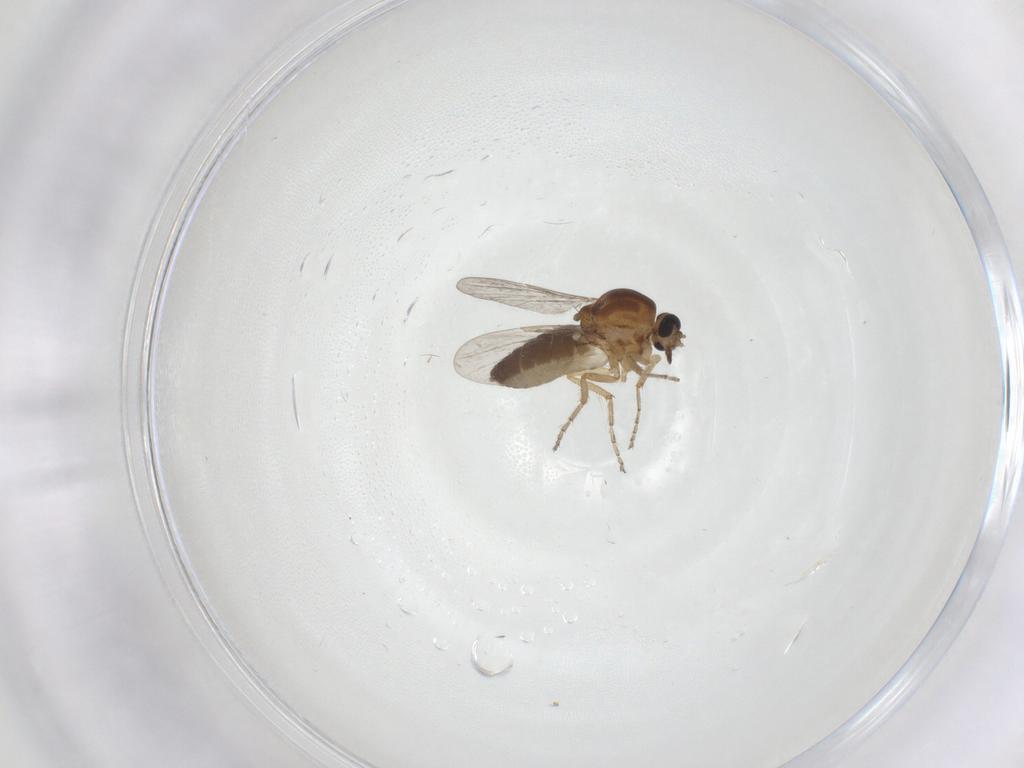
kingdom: Animalia
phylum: Arthropoda
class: Insecta
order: Diptera
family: Ceratopogonidae
